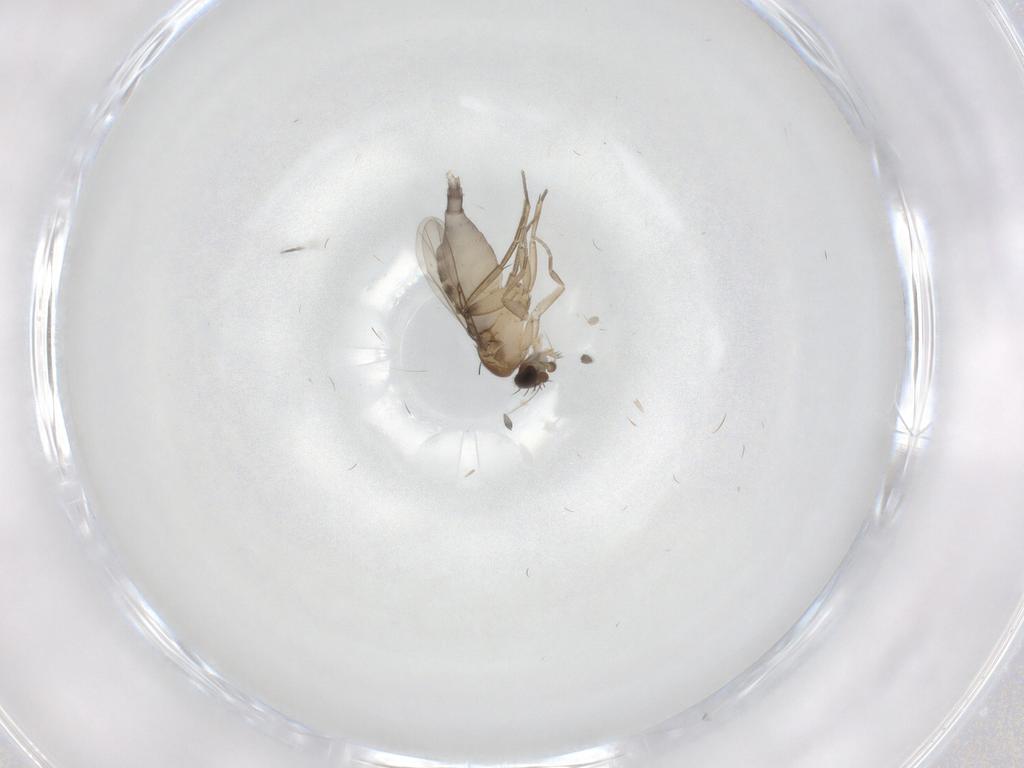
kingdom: Animalia
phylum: Arthropoda
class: Insecta
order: Diptera
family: Phoridae
